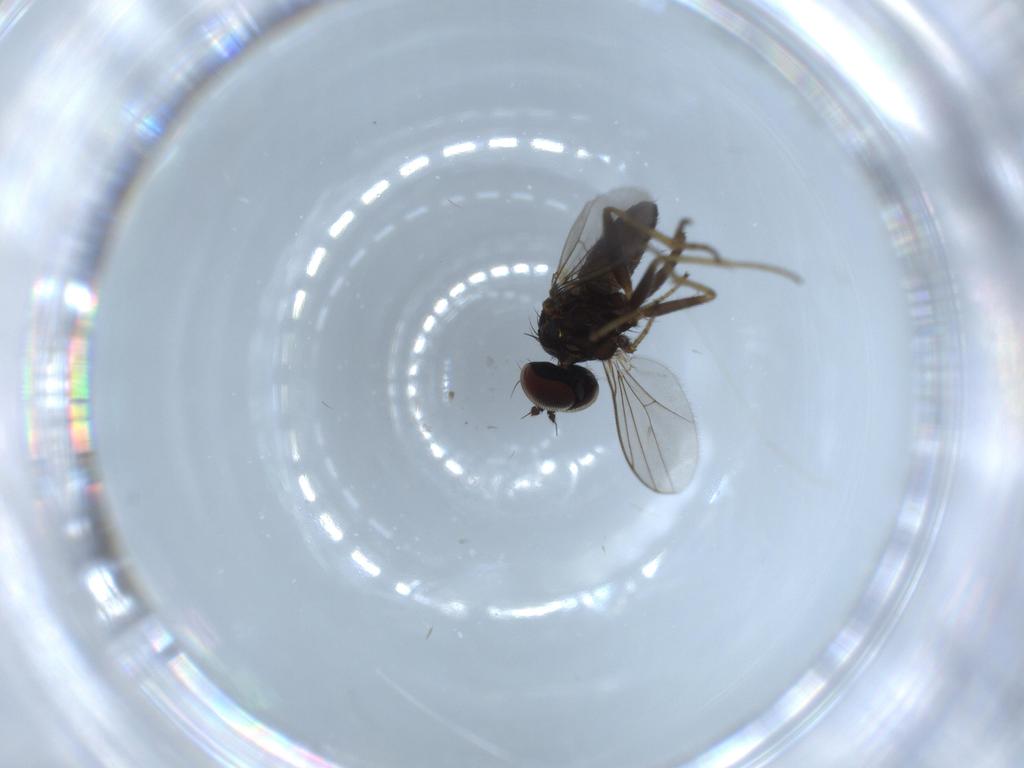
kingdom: Animalia
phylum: Arthropoda
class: Insecta
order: Diptera
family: Dolichopodidae
